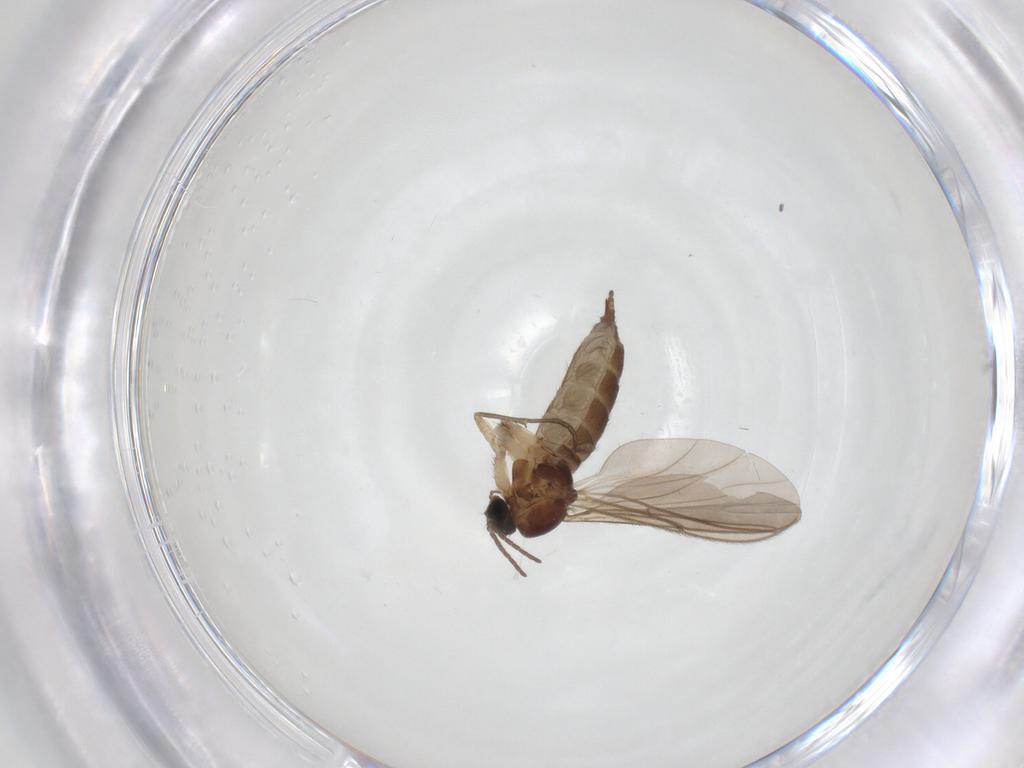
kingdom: Animalia
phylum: Arthropoda
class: Insecta
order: Diptera
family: Sciaridae
